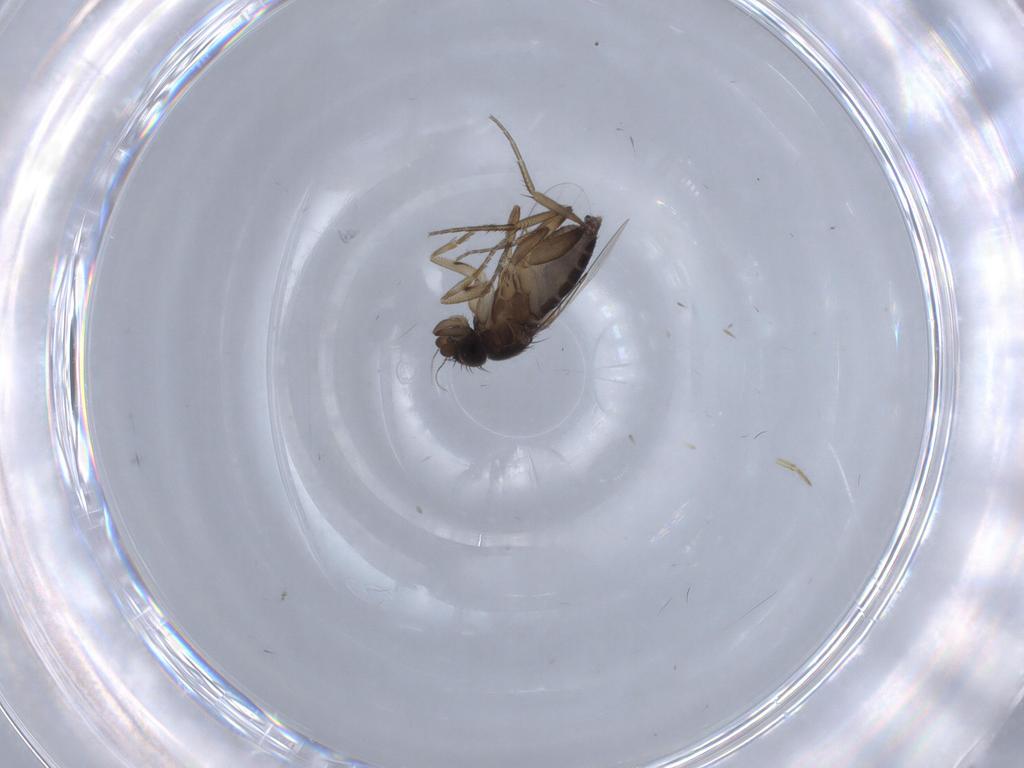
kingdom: Animalia
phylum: Arthropoda
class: Insecta
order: Diptera
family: Phoridae
